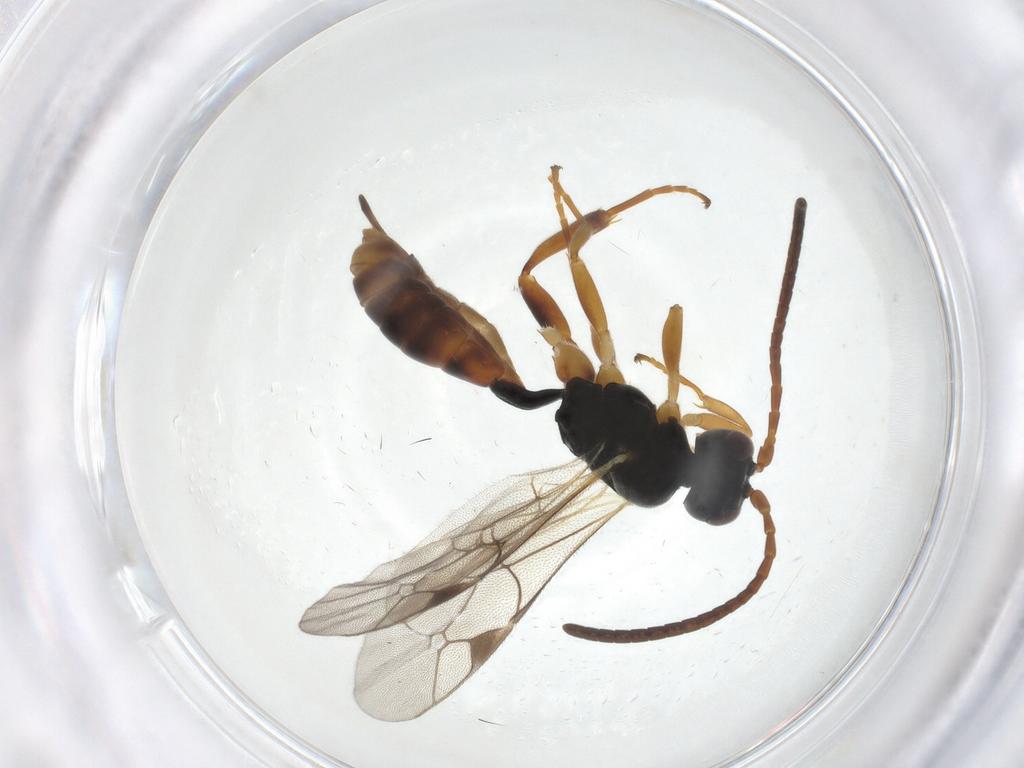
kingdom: Animalia
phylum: Arthropoda
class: Insecta
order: Hymenoptera
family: Ichneumonidae
